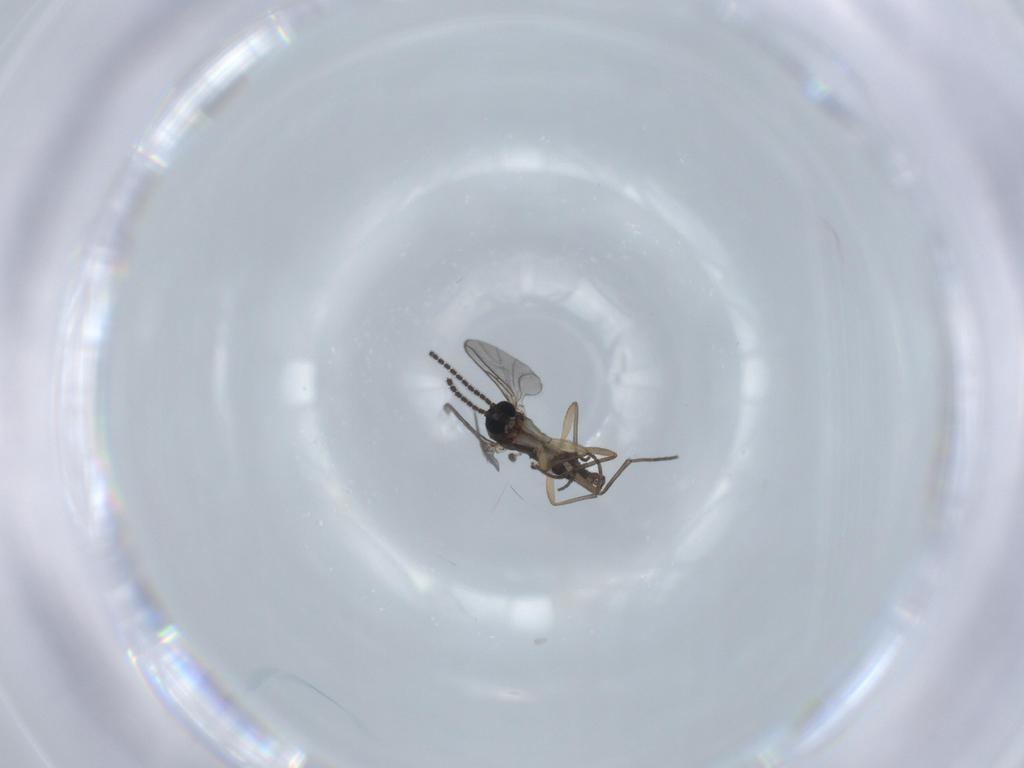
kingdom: Animalia
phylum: Arthropoda
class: Insecta
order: Diptera
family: Sciaridae
